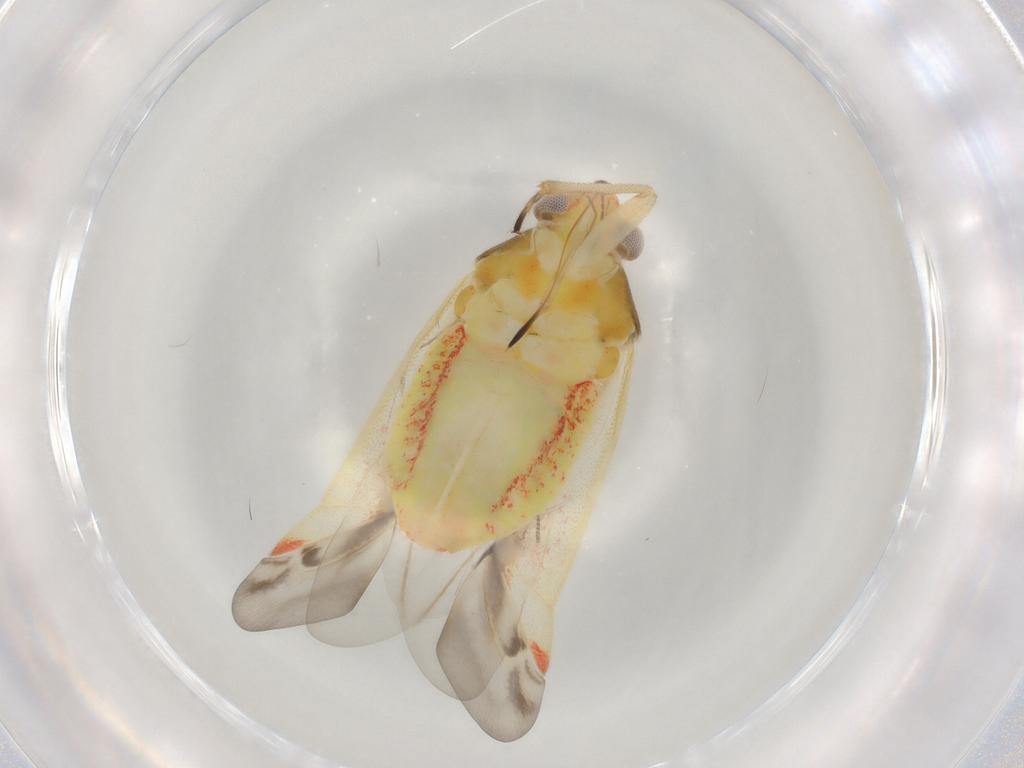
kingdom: Animalia
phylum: Arthropoda
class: Insecta
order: Hemiptera
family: Miridae
